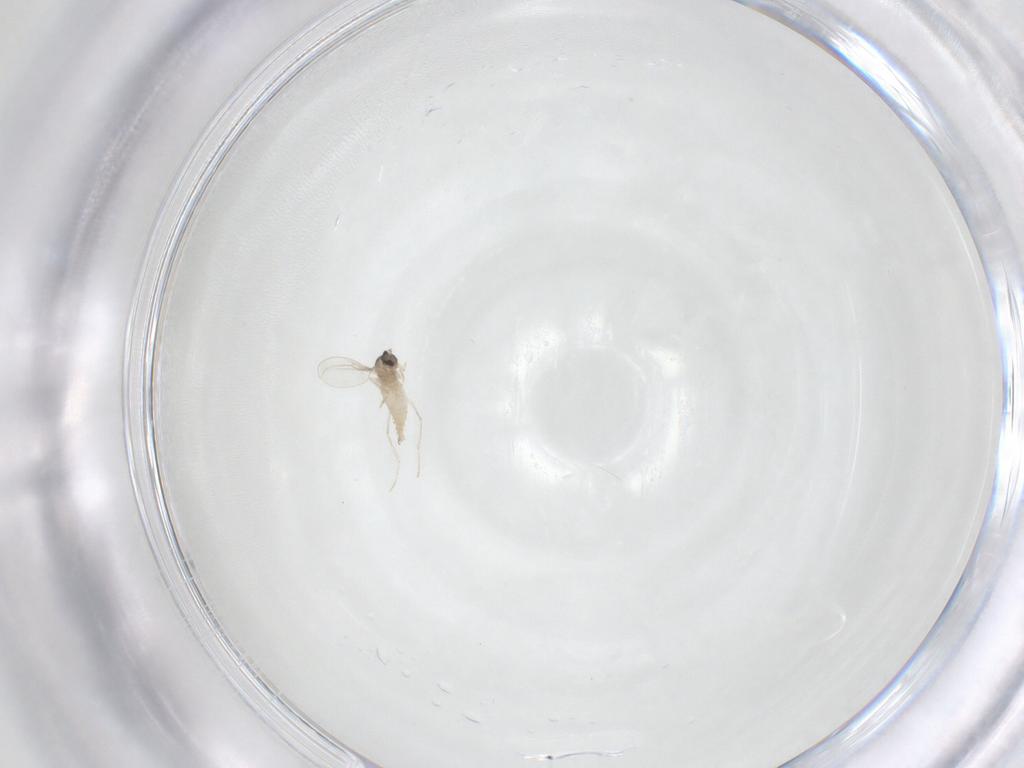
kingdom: Animalia
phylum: Arthropoda
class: Insecta
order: Diptera
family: Cecidomyiidae
